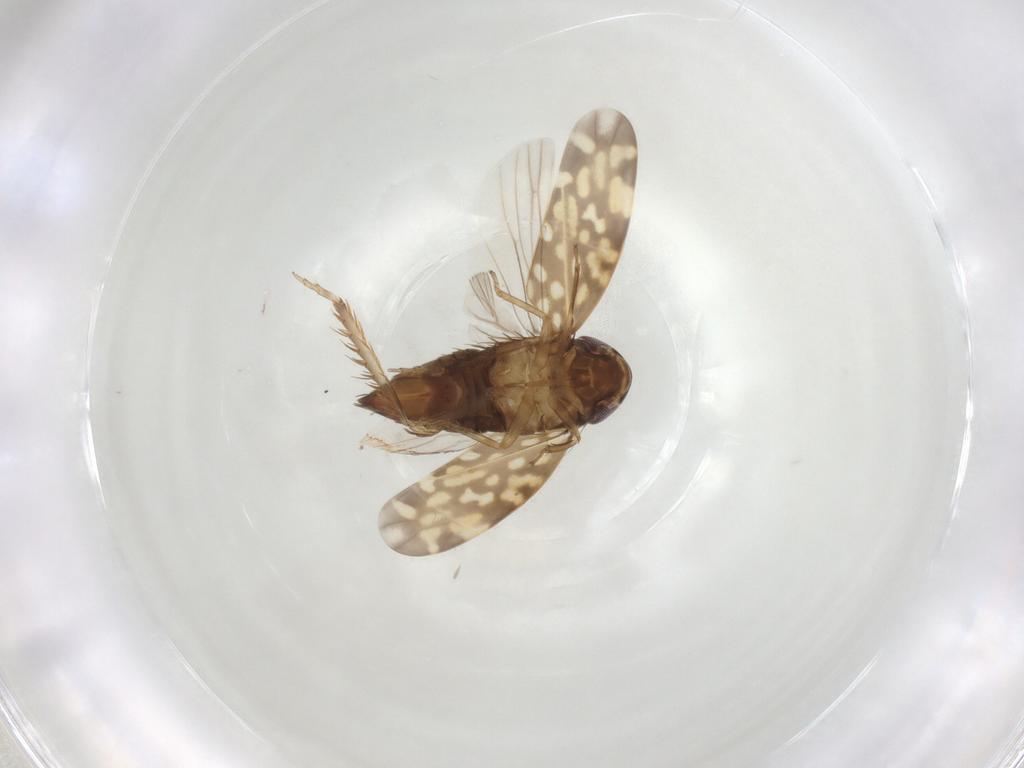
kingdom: Animalia
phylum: Arthropoda
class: Insecta
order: Hemiptera
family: Cicadellidae
